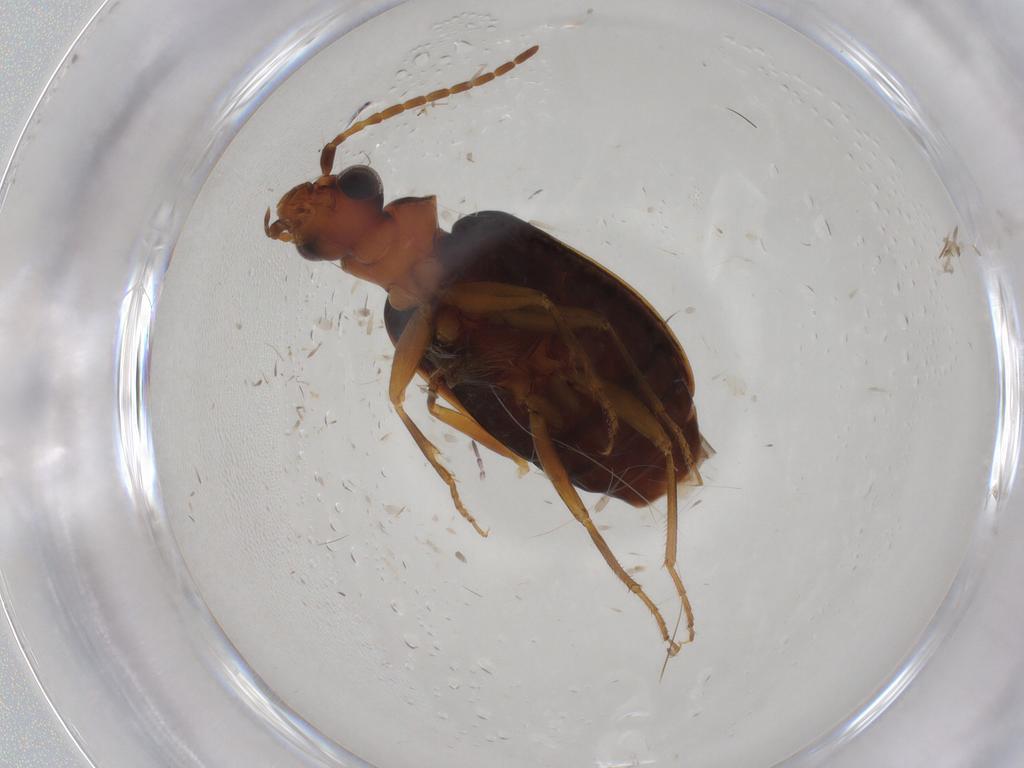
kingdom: Animalia
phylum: Arthropoda
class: Insecta
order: Coleoptera
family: Carabidae
